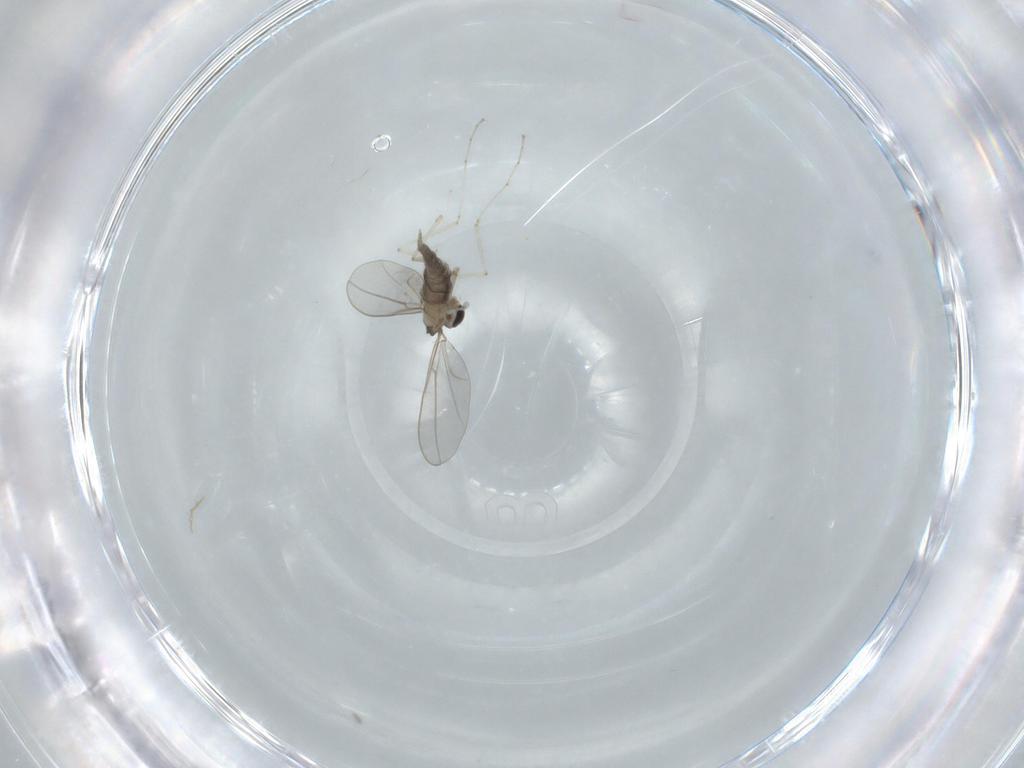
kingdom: Animalia
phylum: Arthropoda
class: Insecta
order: Diptera
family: Cecidomyiidae
